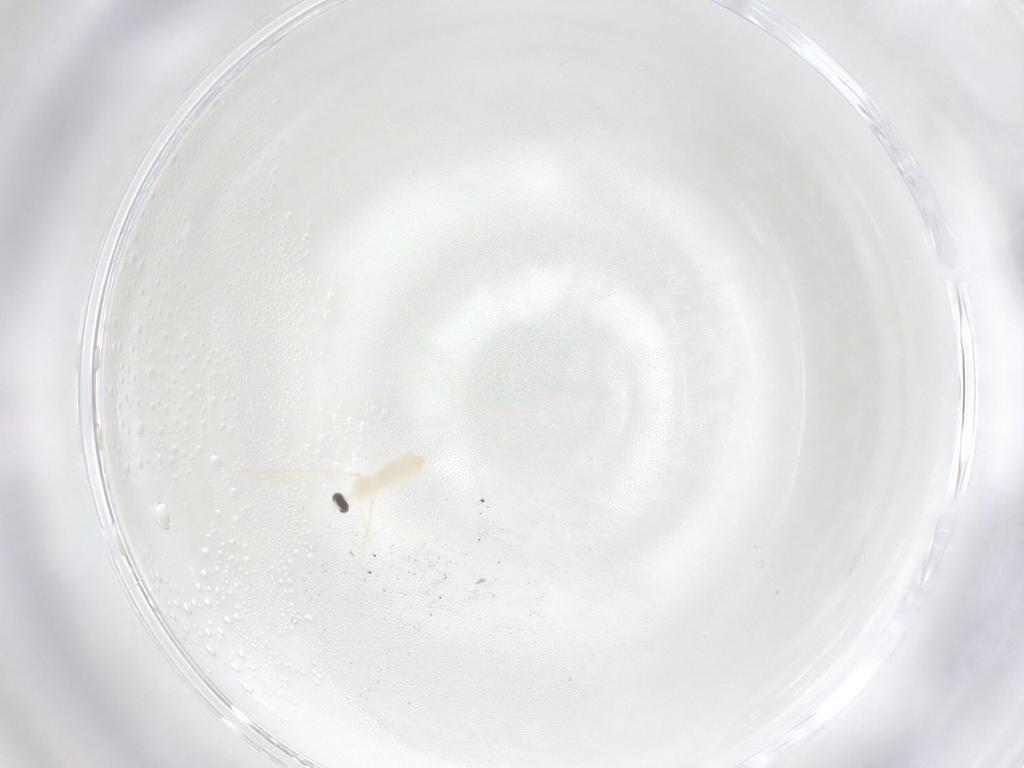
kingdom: Animalia
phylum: Arthropoda
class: Insecta
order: Diptera
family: Cecidomyiidae
